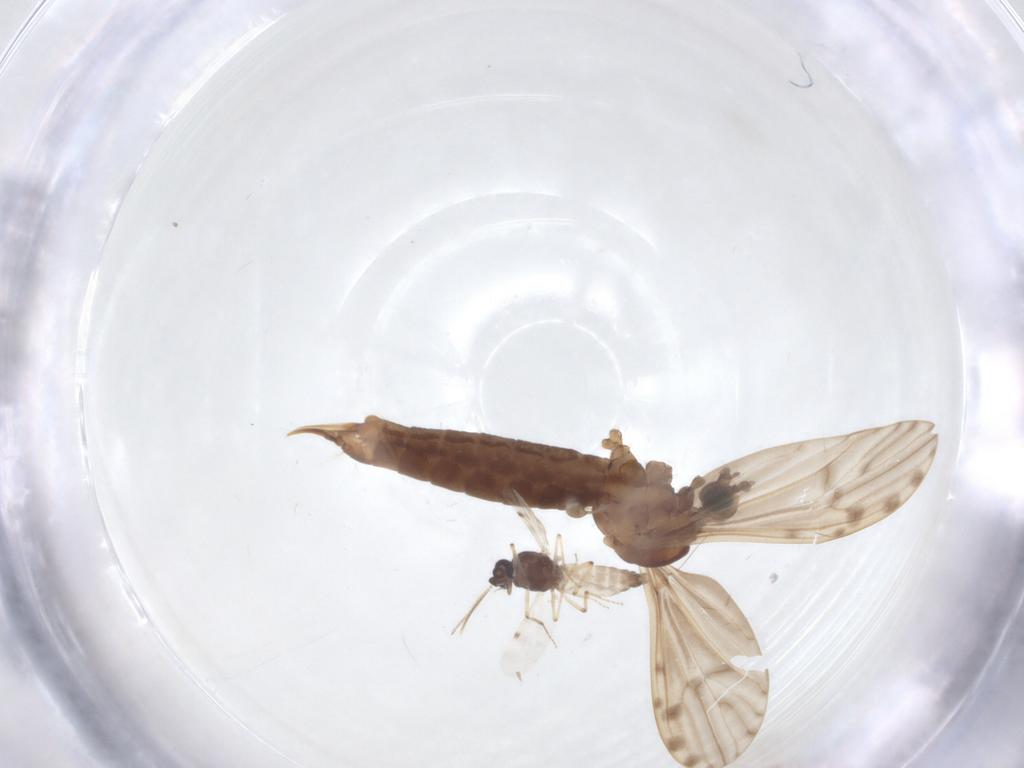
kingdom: Animalia
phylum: Arthropoda
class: Insecta
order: Diptera
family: Limoniidae
